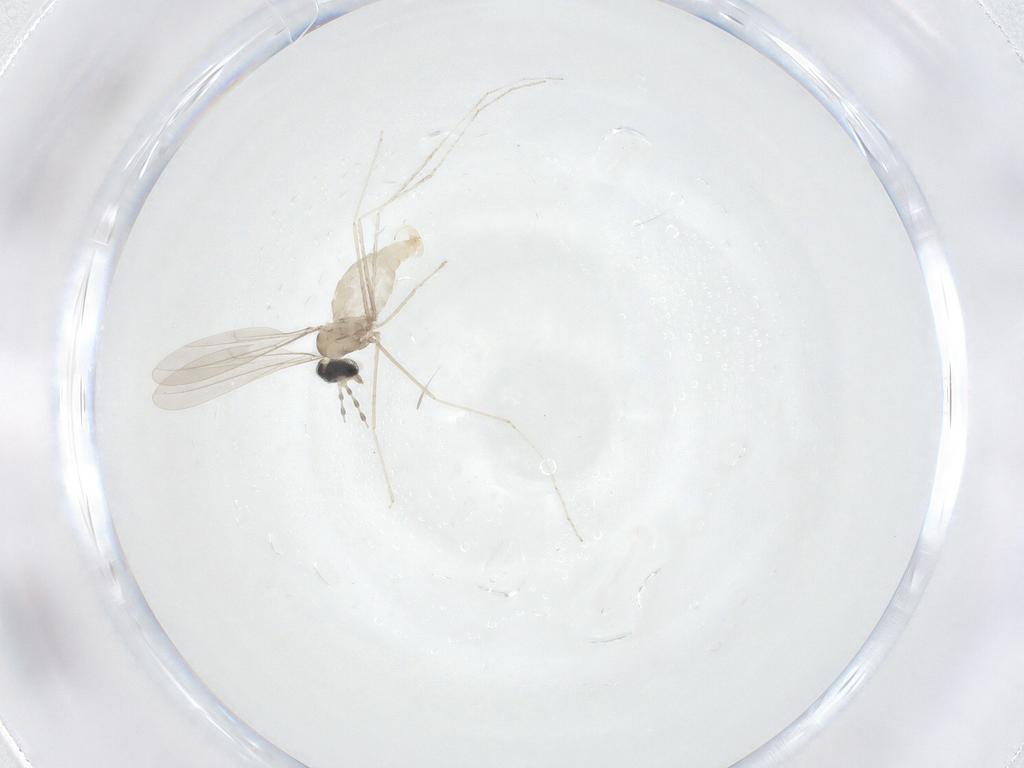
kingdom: Animalia
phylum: Arthropoda
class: Insecta
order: Diptera
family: Cecidomyiidae
